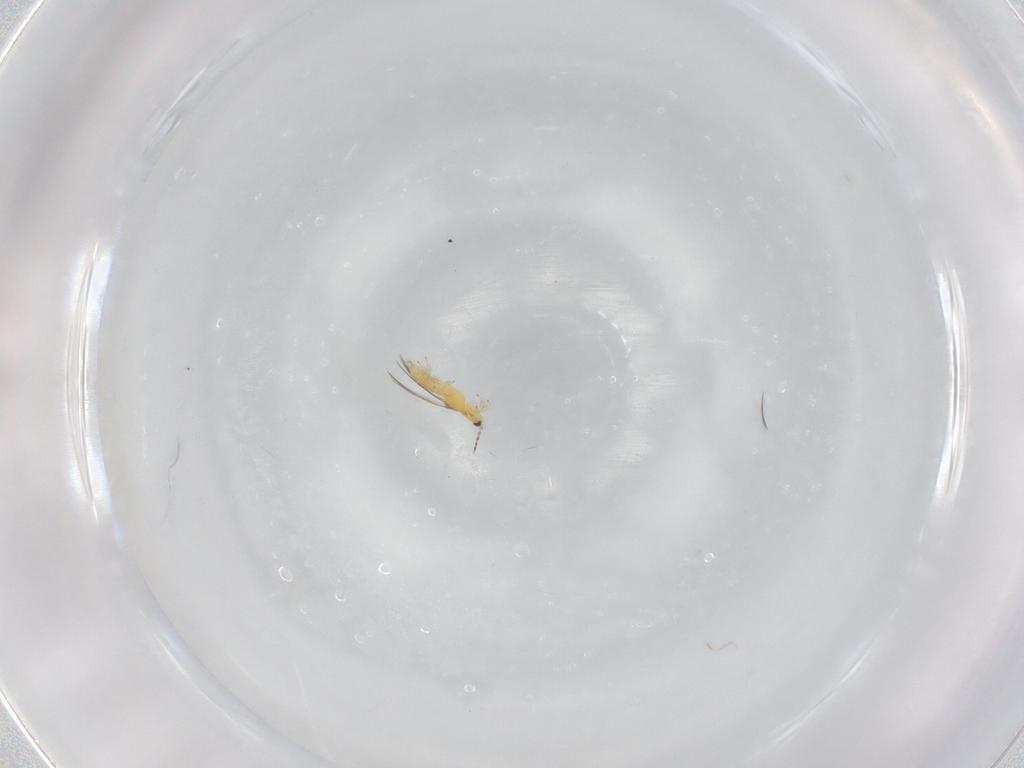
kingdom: Animalia
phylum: Arthropoda
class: Insecta
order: Thysanoptera
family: Thripidae
